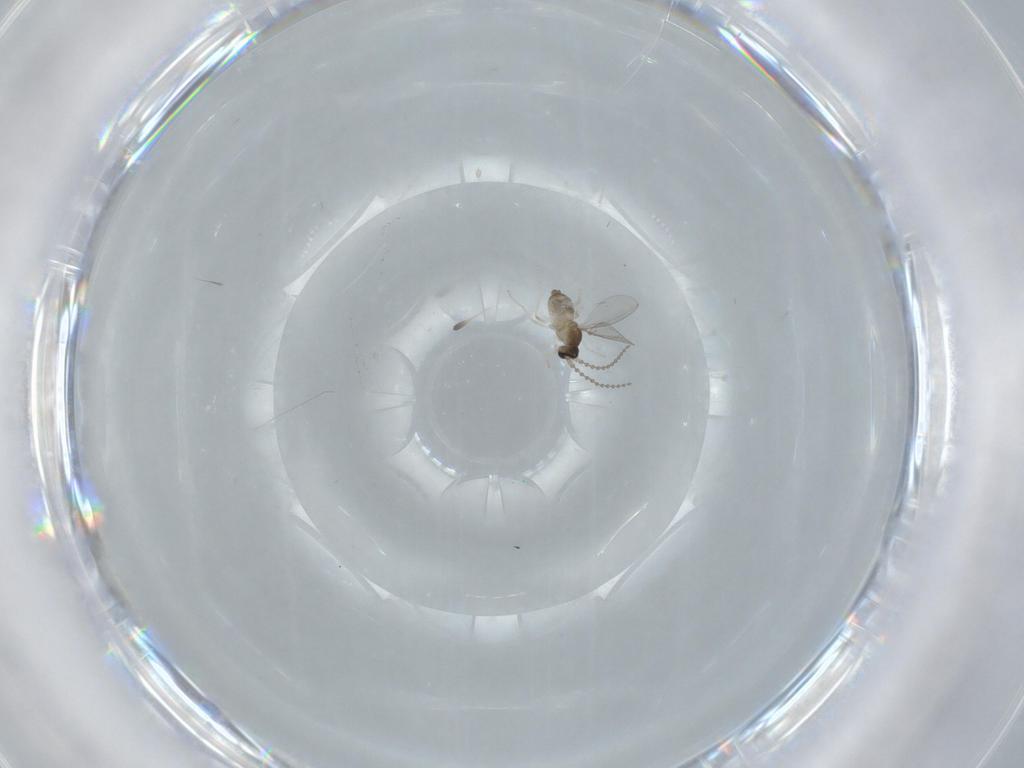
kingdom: Animalia
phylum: Arthropoda
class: Insecta
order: Diptera
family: Cecidomyiidae
